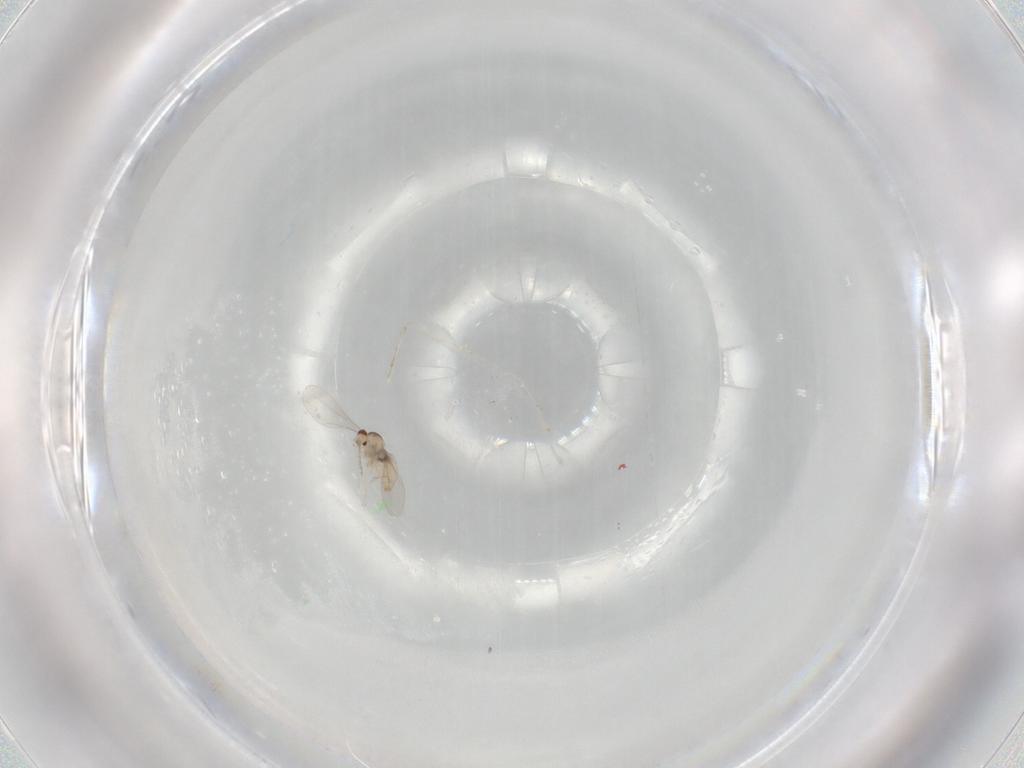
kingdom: Animalia
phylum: Arthropoda
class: Insecta
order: Diptera
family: Cecidomyiidae
